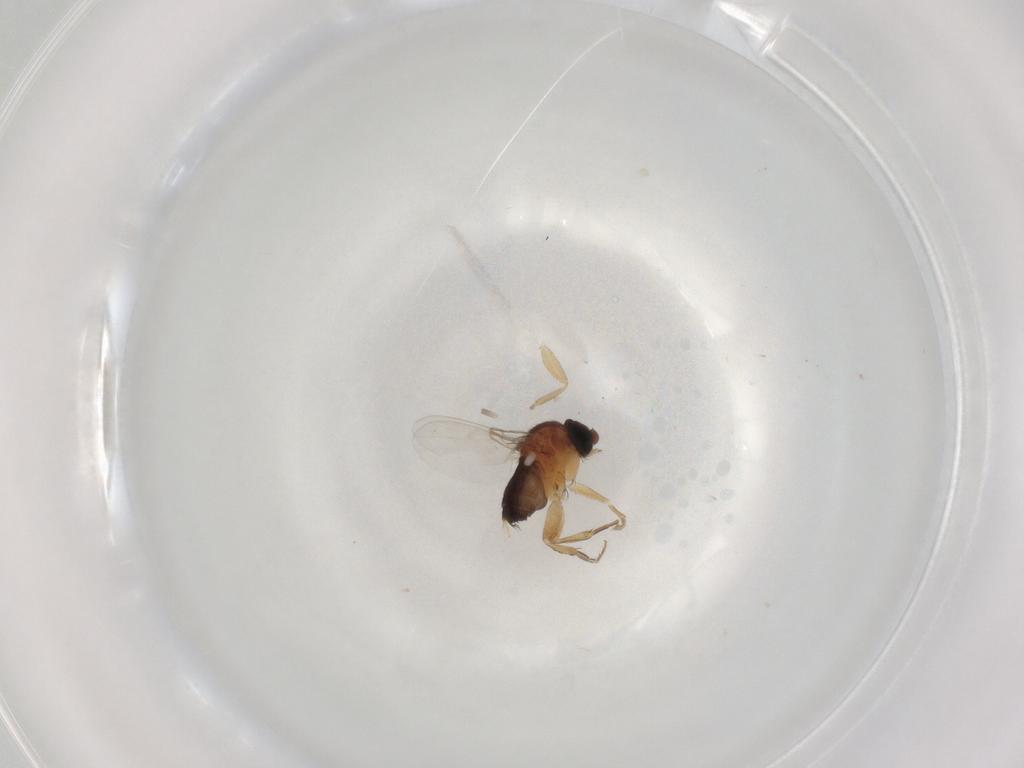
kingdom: Animalia
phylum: Arthropoda
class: Insecta
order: Diptera
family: Phoridae
